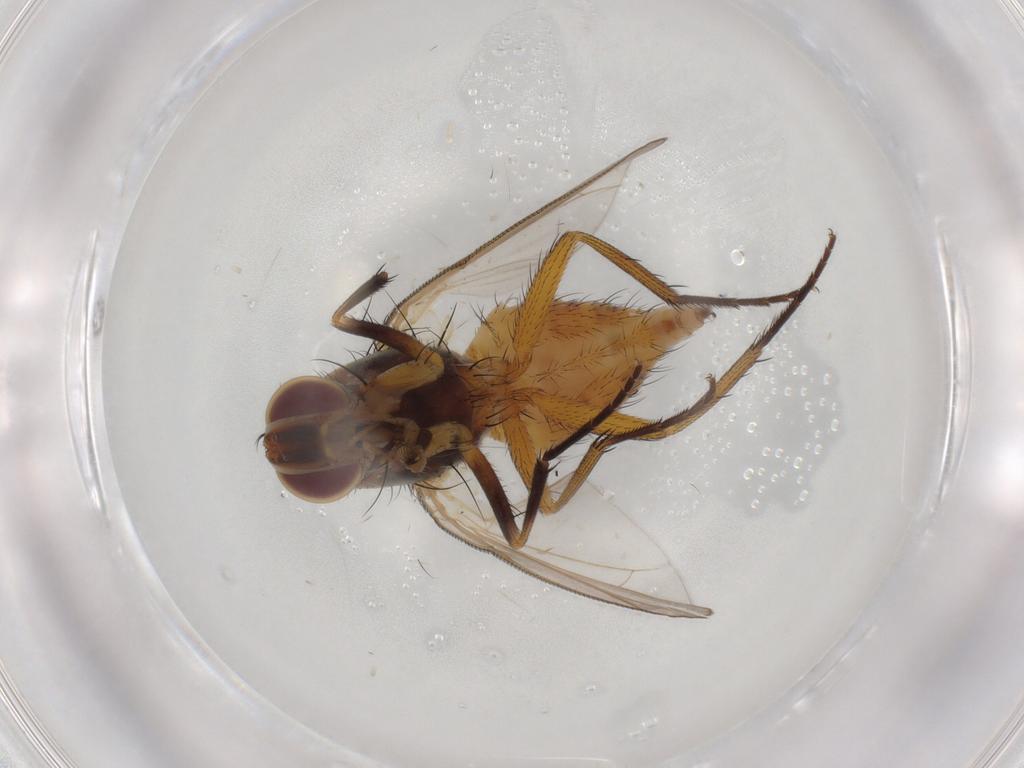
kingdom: Animalia
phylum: Arthropoda
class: Insecta
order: Diptera
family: Muscidae
